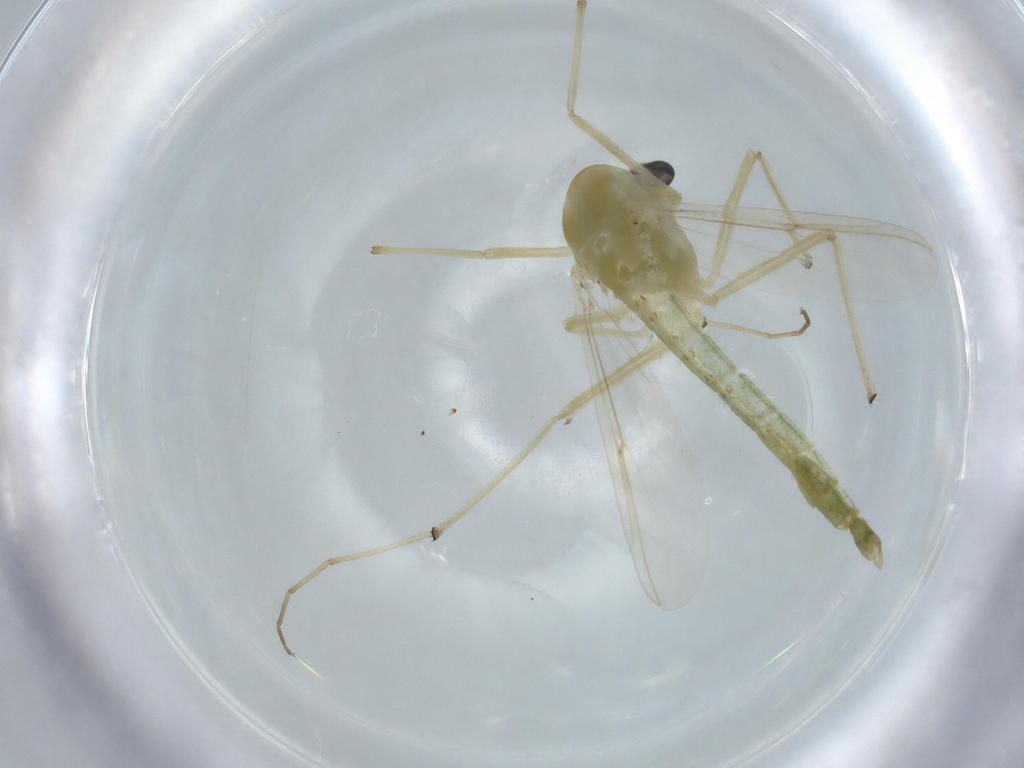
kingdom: Animalia
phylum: Arthropoda
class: Insecta
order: Diptera
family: Chironomidae
